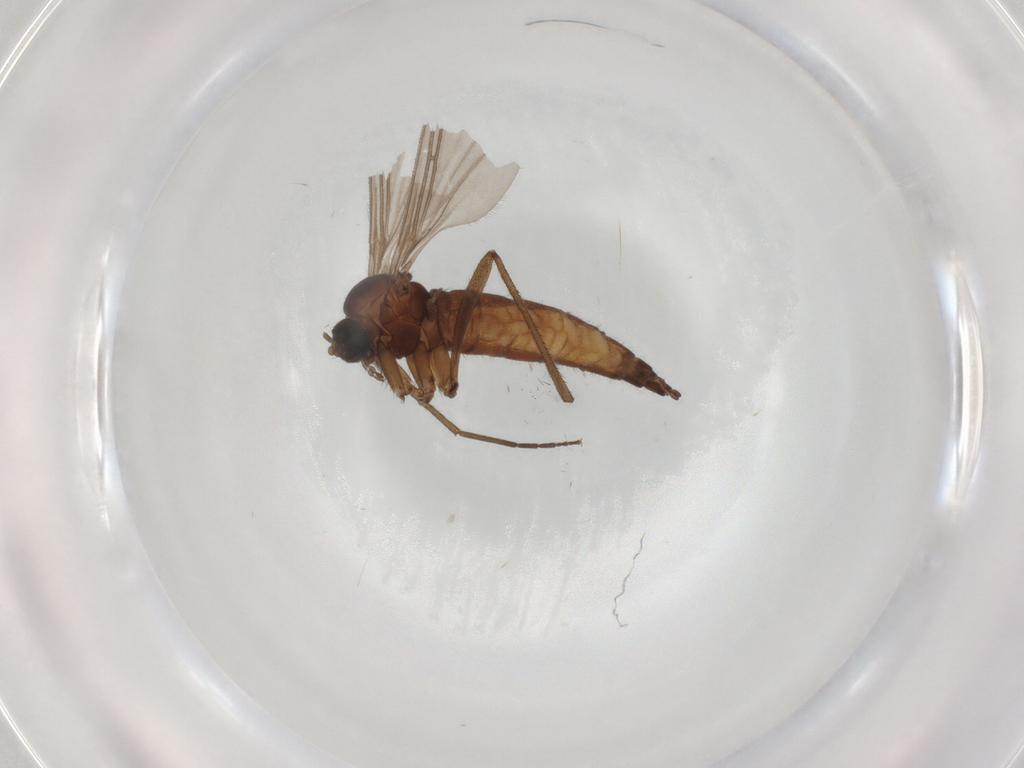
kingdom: Animalia
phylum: Arthropoda
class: Insecta
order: Diptera
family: Sciaridae
